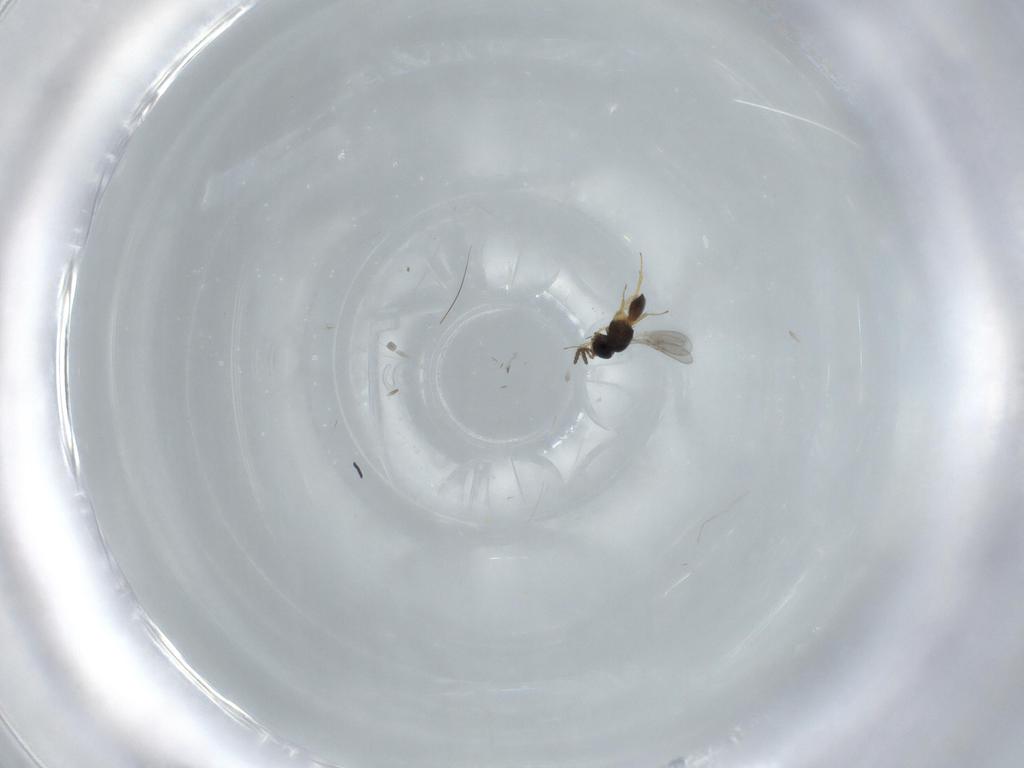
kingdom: Animalia
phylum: Arthropoda
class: Insecta
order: Hymenoptera
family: Scelionidae
